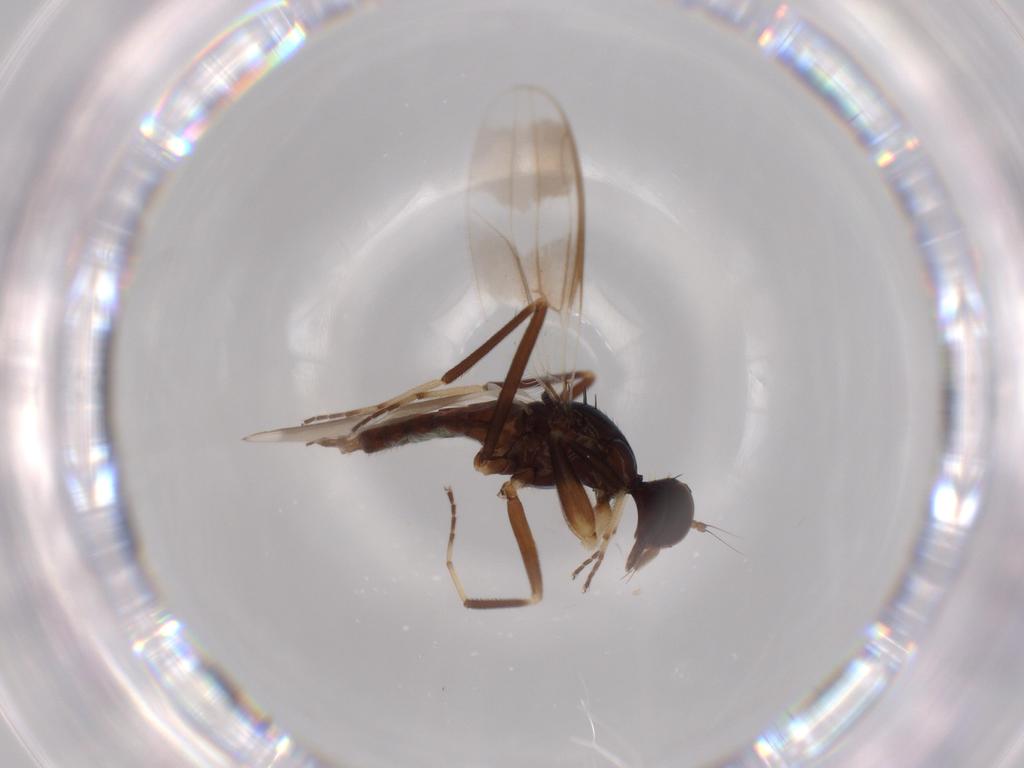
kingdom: Animalia
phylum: Arthropoda
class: Insecta
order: Diptera
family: Hybotidae
